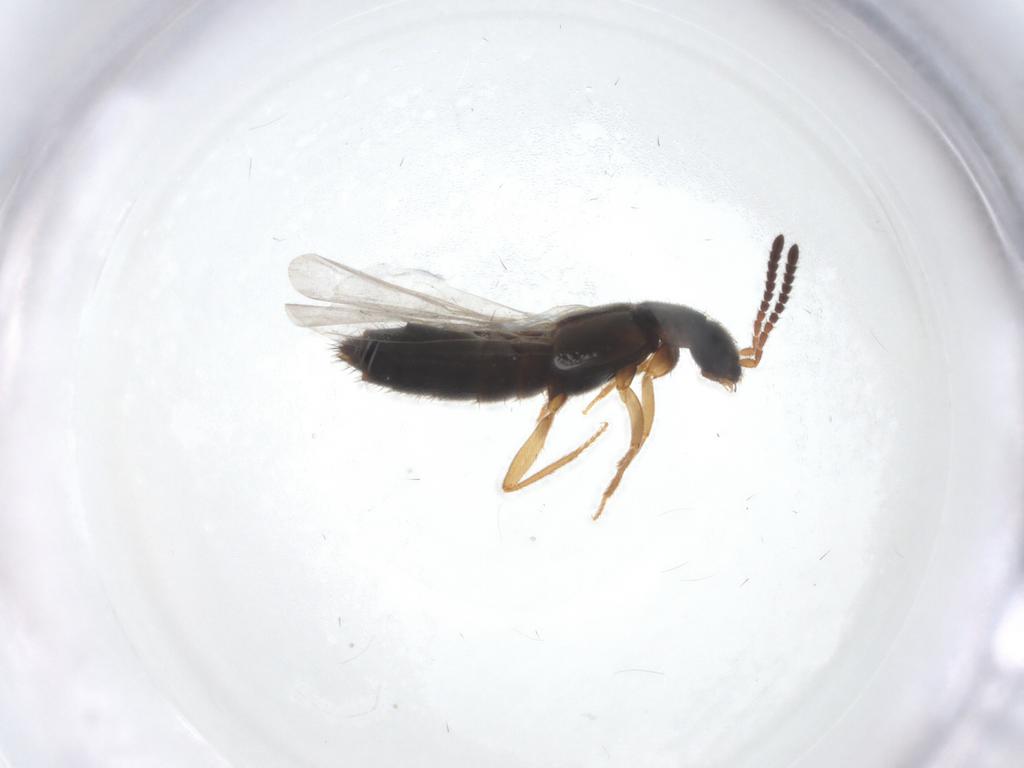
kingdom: Animalia
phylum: Arthropoda
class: Insecta
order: Coleoptera
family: Staphylinidae
